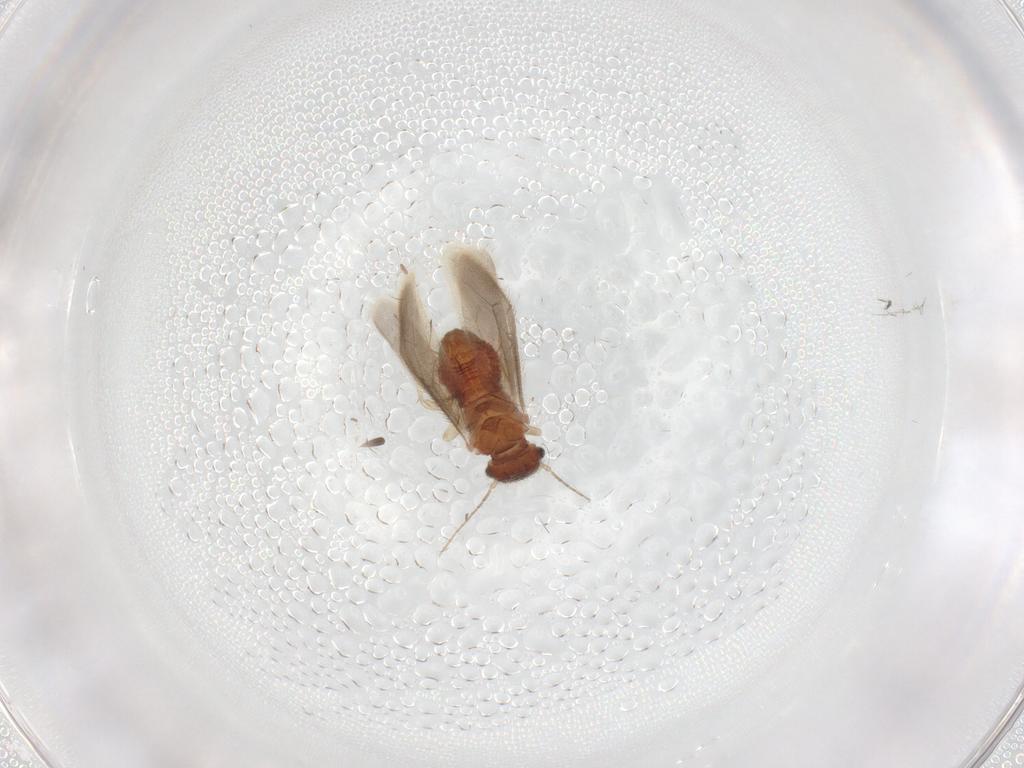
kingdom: Animalia
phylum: Arthropoda
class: Insecta
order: Psocodea
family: Archipsocidae
